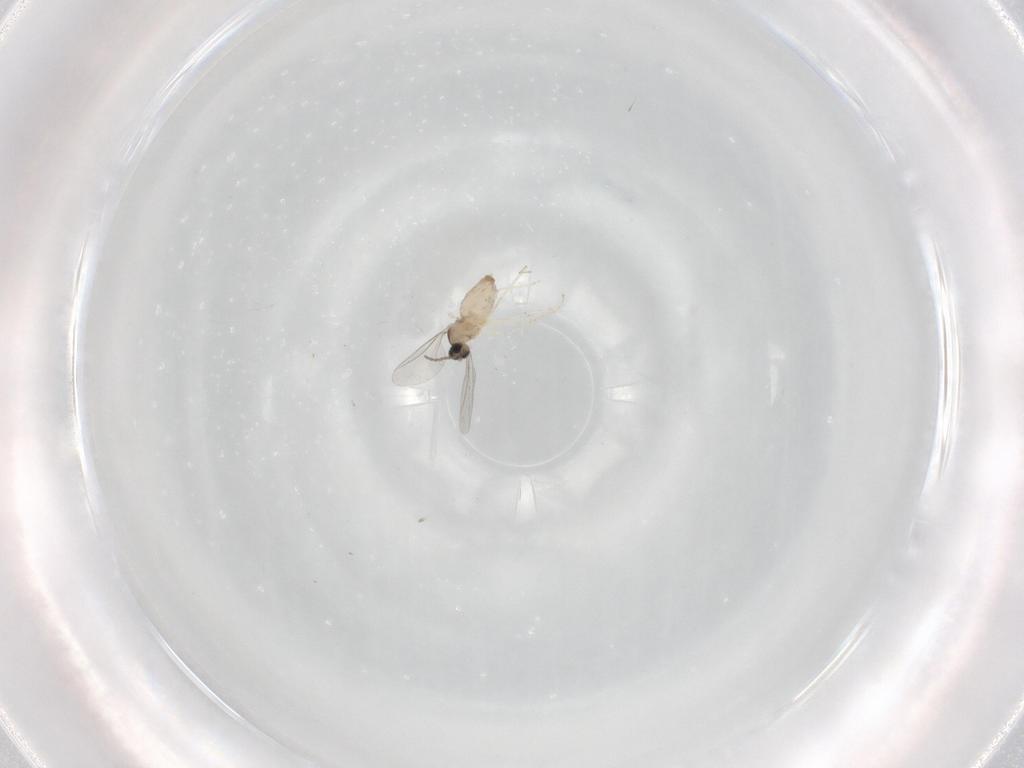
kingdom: Animalia
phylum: Arthropoda
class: Insecta
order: Diptera
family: Cecidomyiidae
